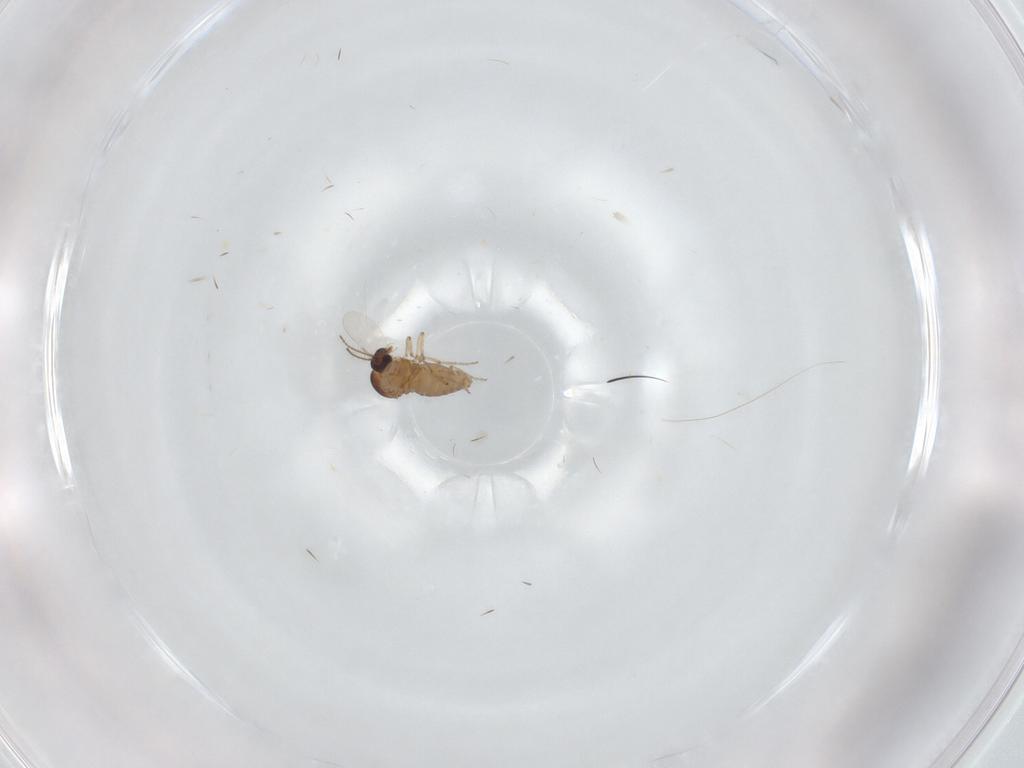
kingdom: Animalia
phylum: Arthropoda
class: Insecta
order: Diptera
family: Ceratopogonidae
